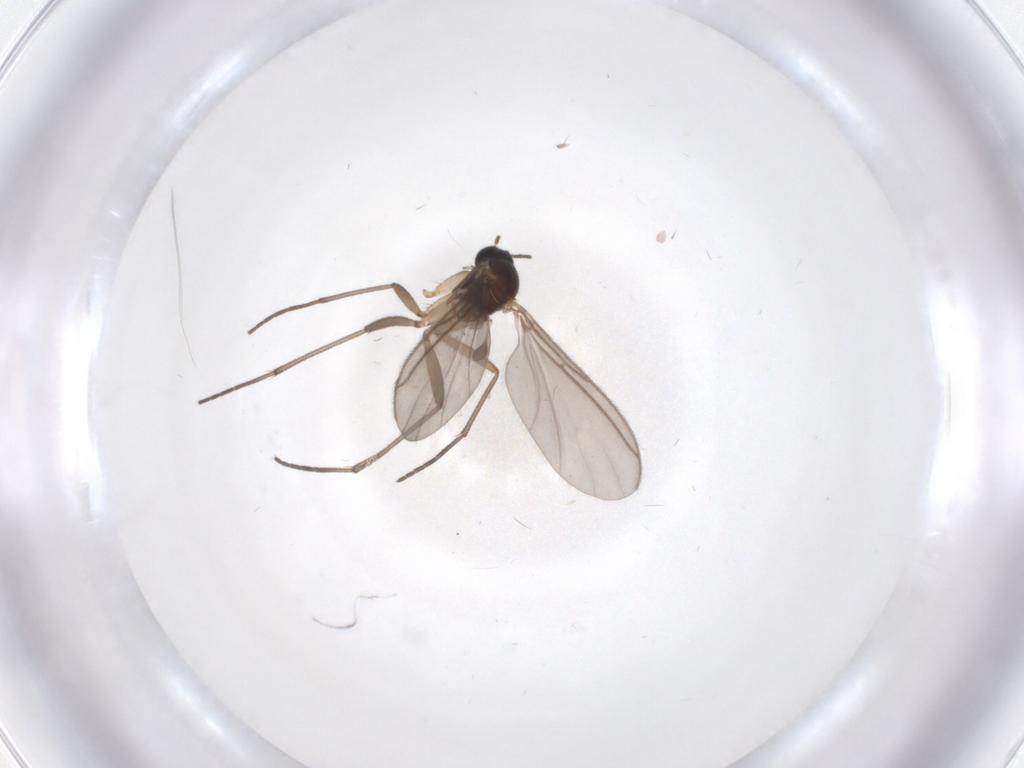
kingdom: Animalia
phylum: Arthropoda
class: Insecta
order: Diptera
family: Sciaridae
